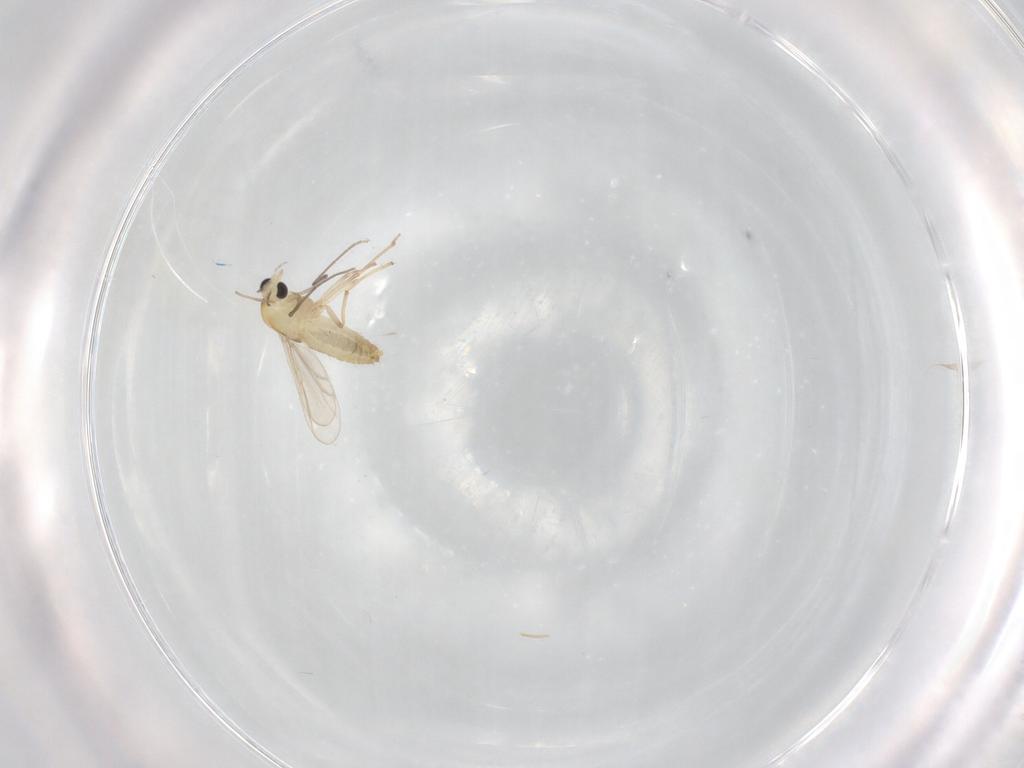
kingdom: Animalia
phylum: Arthropoda
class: Insecta
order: Diptera
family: Chironomidae
